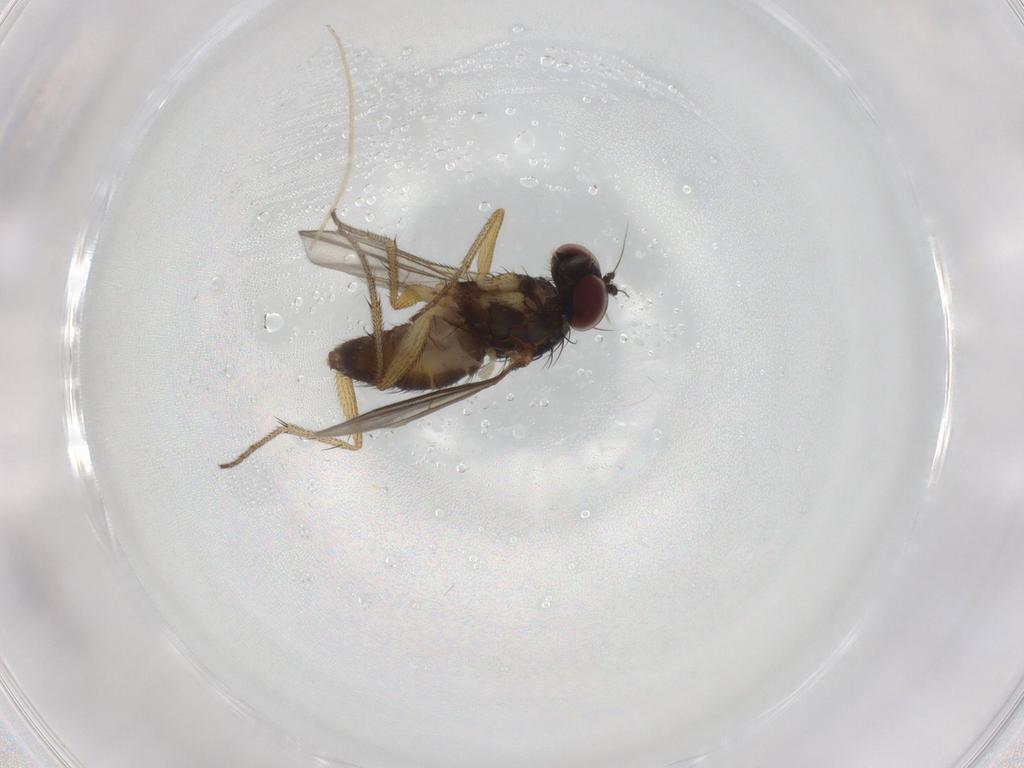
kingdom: Animalia
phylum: Arthropoda
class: Insecta
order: Diptera
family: Dolichopodidae
